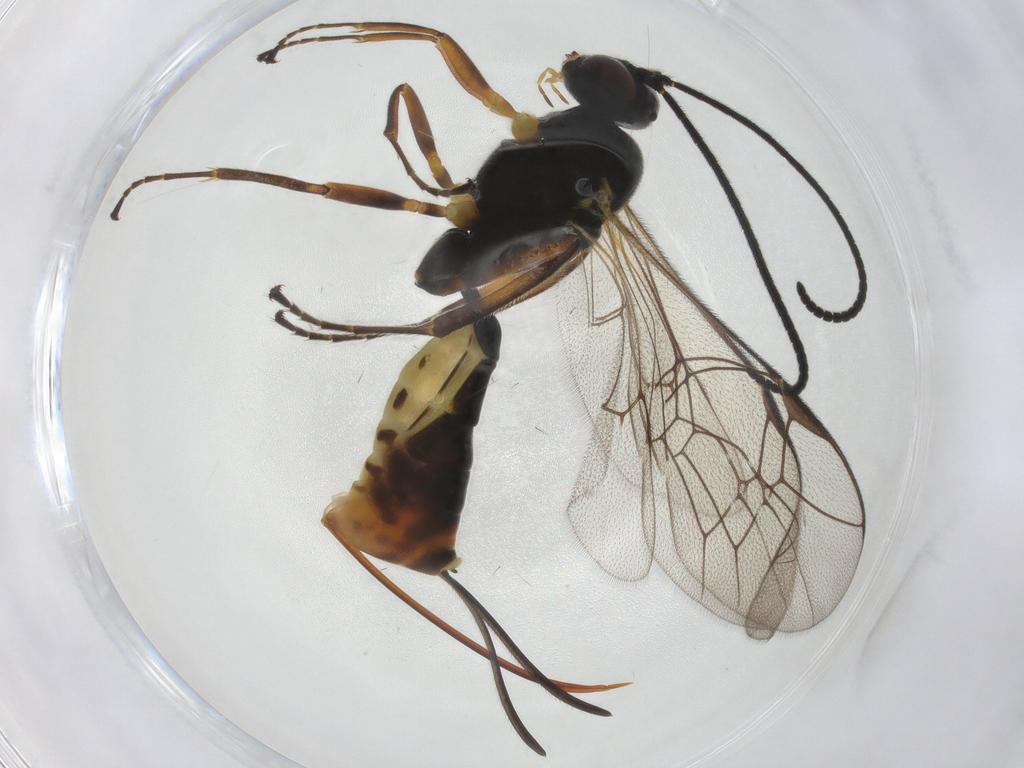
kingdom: Animalia
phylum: Arthropoda
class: Insecta
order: Hymenoptera
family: Ichneumonidae
